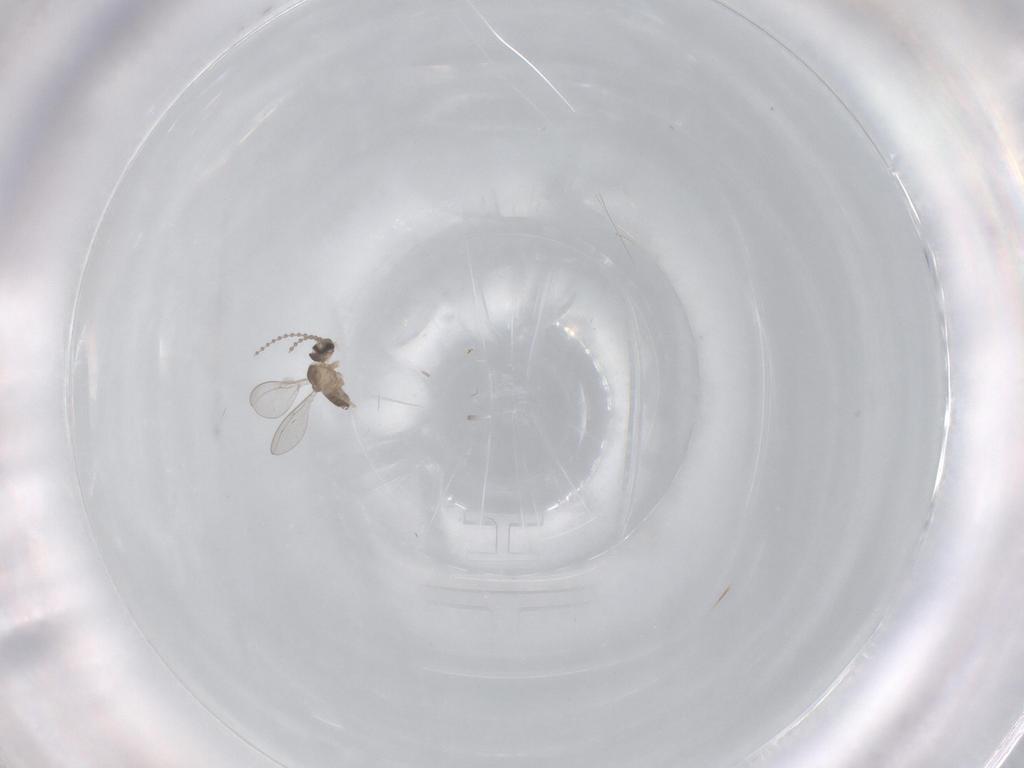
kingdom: Animalia
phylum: Arthropoda
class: Insecta
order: Diptera
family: Cecidomyiidae
